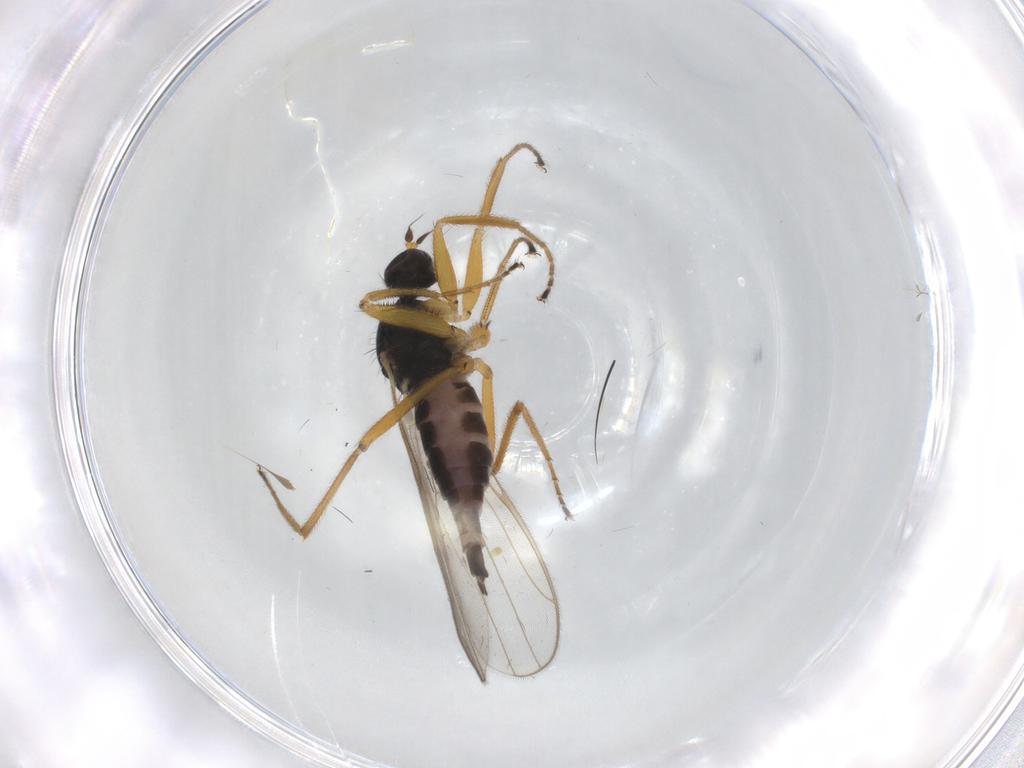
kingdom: Animalia
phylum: Arthropoda
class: Insecta
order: Diptera
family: Hybotidae
